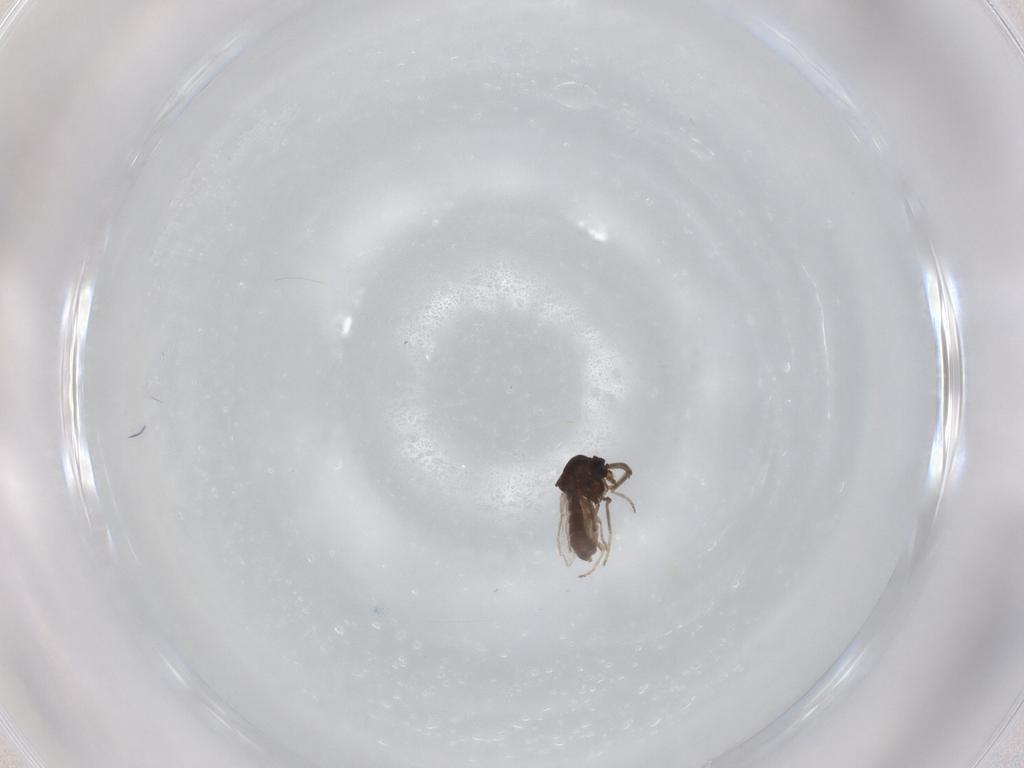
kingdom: Animalia
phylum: Arthropoda
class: Insecta
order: Diptera
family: Ceratopogonidae
